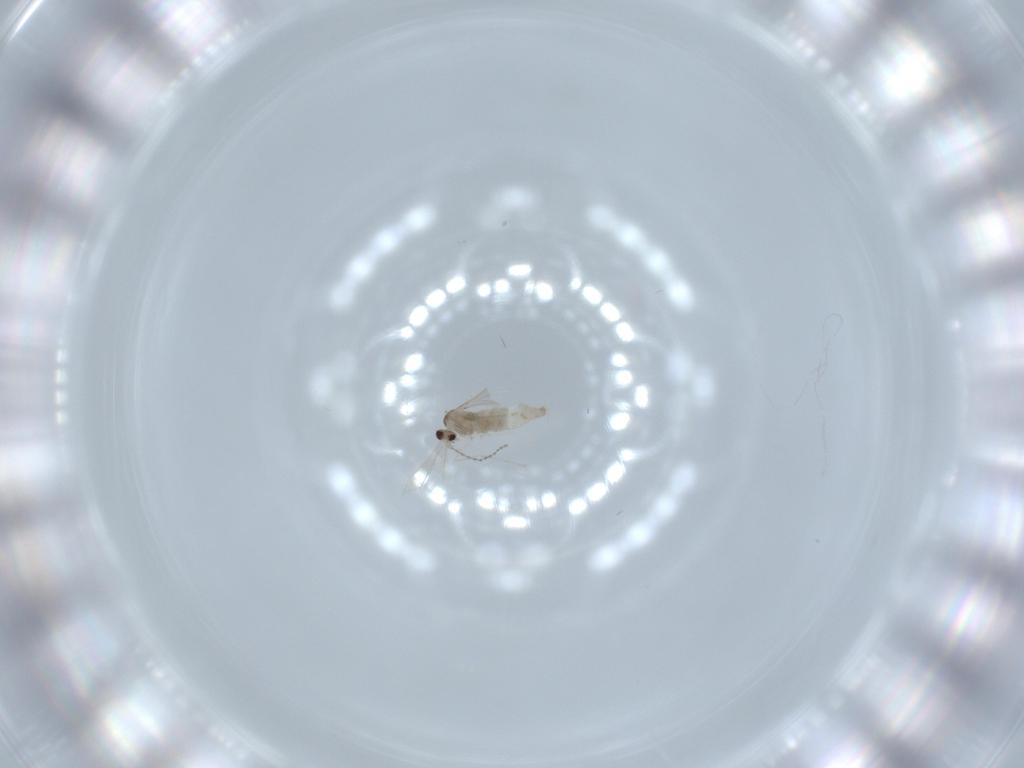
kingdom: Animalia
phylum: Arthropoda
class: Insecta
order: Diptera
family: Cecidomyiidae
